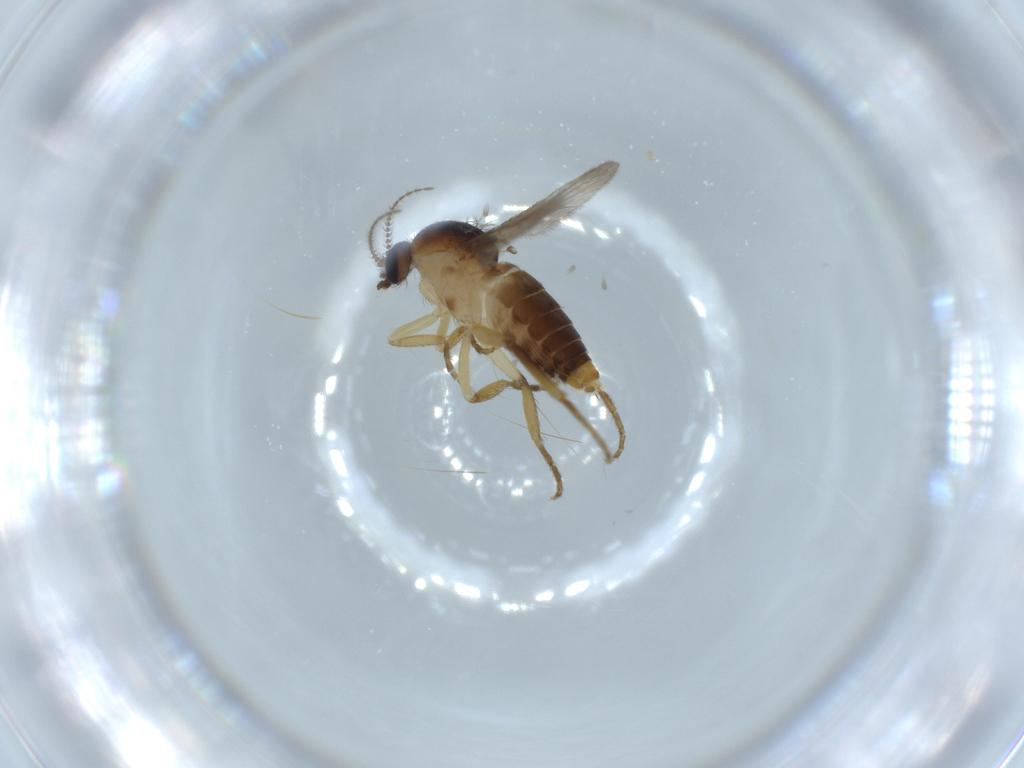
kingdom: Animalia
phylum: Arthropoda
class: Insecta
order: Diptera
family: Ceratopogonidae
